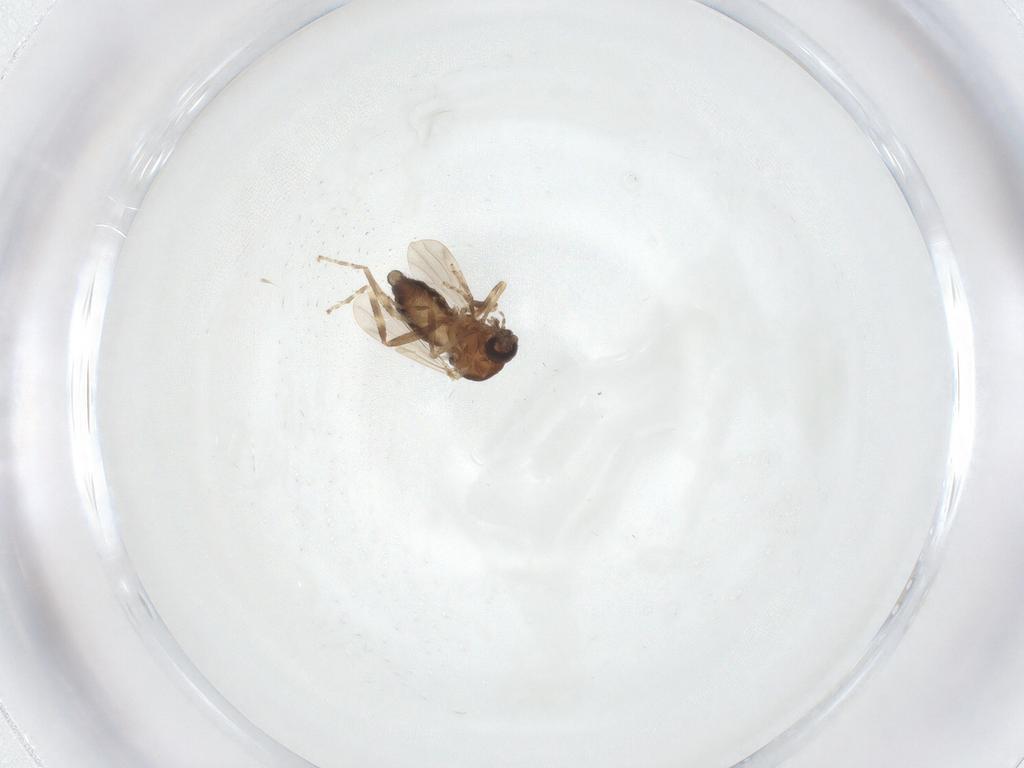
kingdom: Animalia
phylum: Arthropoda
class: Insecta
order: Diptera
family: Ceratopogonidae
